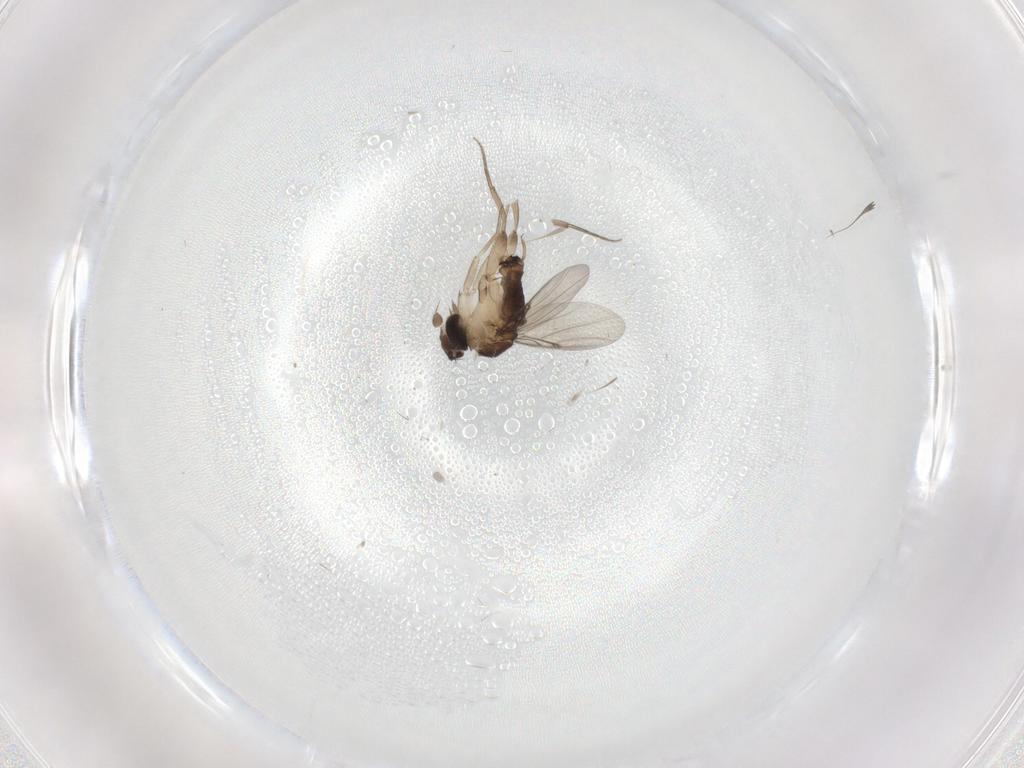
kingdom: Animalia
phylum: Arthropoda
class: Insecta
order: Diptera
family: Phoridae
